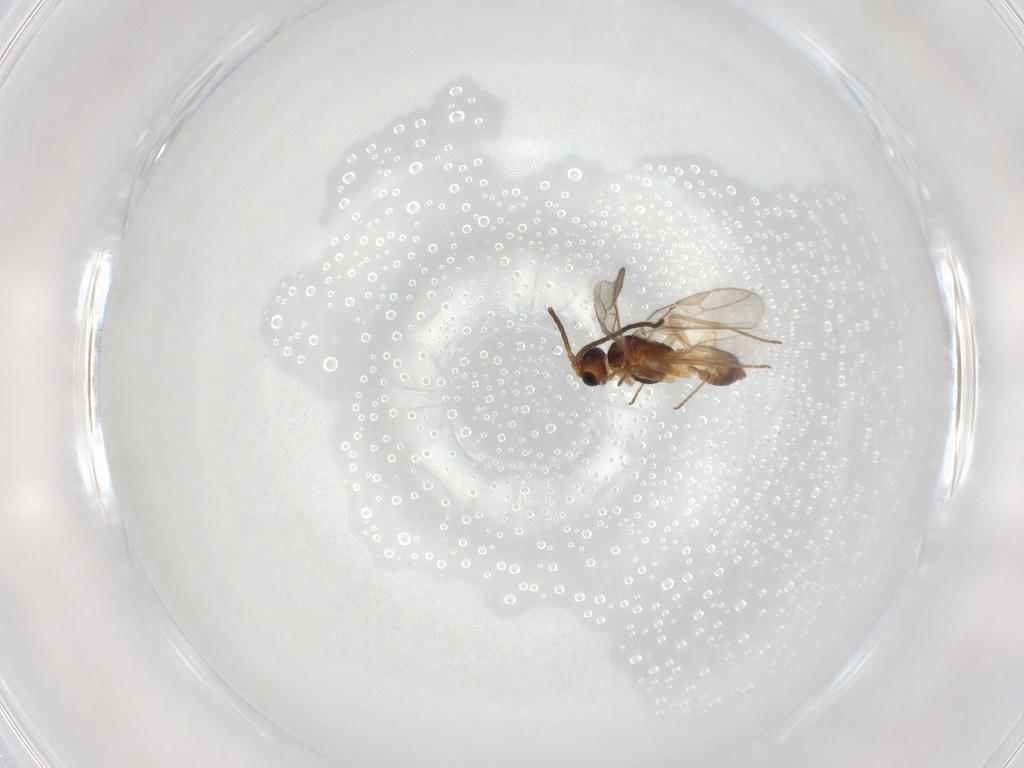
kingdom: Animalia
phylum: Arthropoda
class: Insecta
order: Hymenoptera
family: Braconidae
